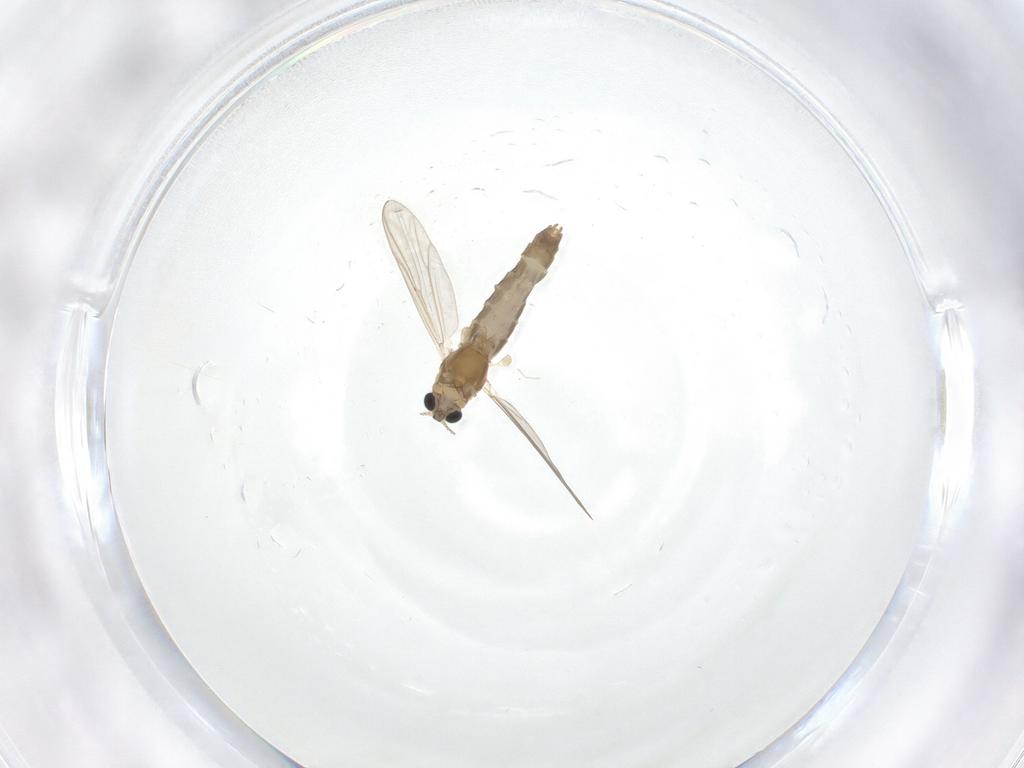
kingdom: Animalia
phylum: Arthropoda
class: Insecta
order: Diptera
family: Chironomidae
